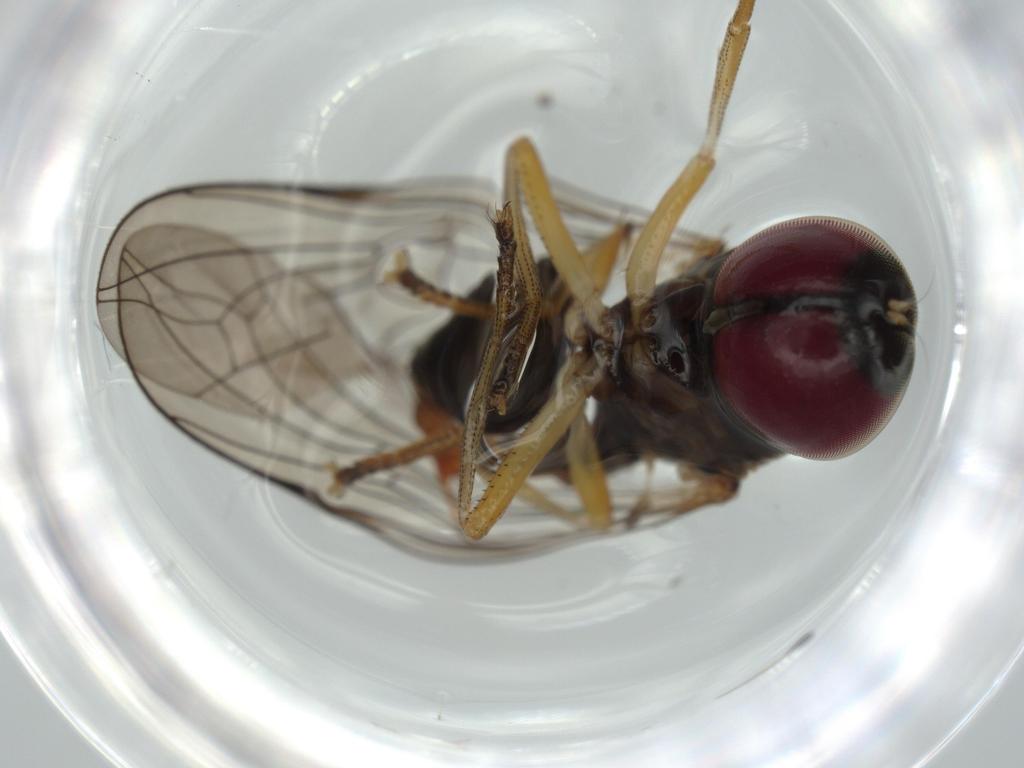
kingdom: Animalia
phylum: Arthropoda
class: Insecta
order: Diptera
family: Pipunculidae
